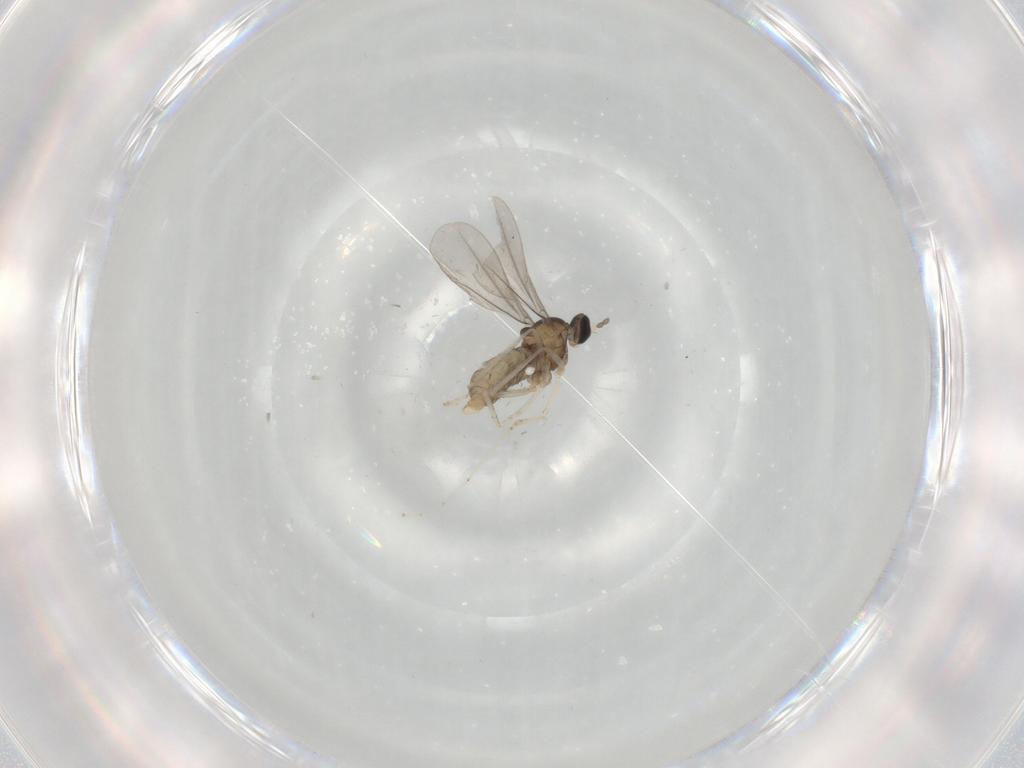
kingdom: Animalia
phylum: Arthropoda
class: Insecta
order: Diptera
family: Cecidomyiidae
